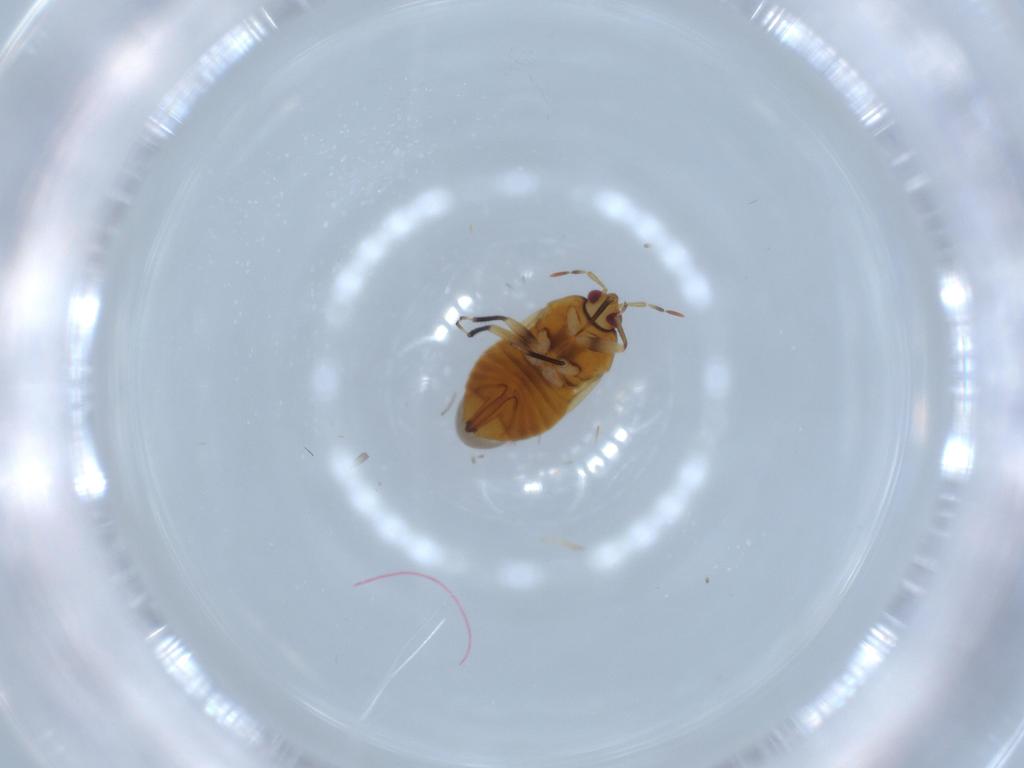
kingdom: Animalia
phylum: Arthropoda
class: Insecta
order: Hemiptera
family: Anthocoridae
